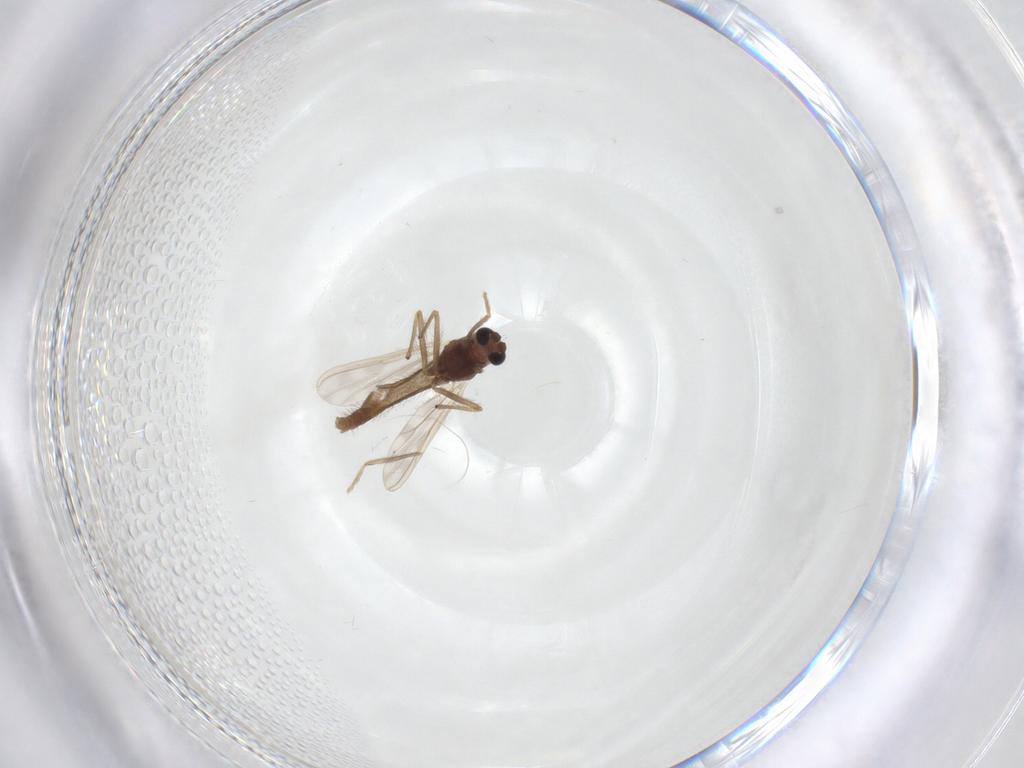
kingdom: Animalia
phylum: Arthropoda
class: Insecta
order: Diptera
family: Chironomidae
